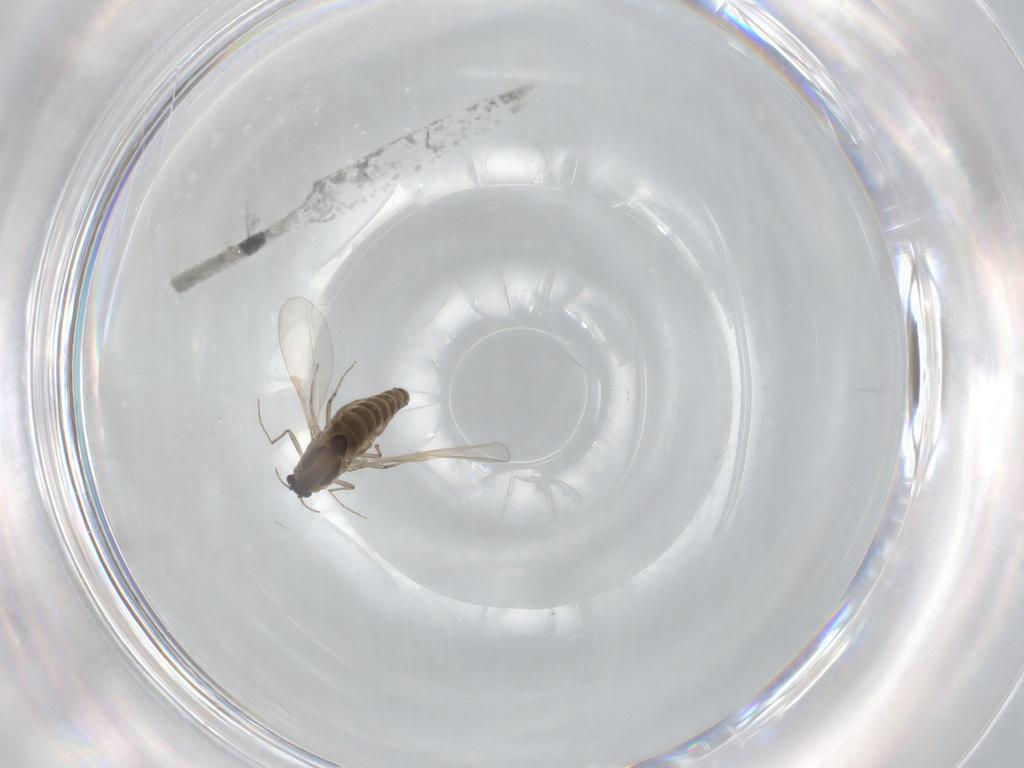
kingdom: Animalia
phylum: Arthropoda
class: Insecta
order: Diptera
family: Chironomidae
